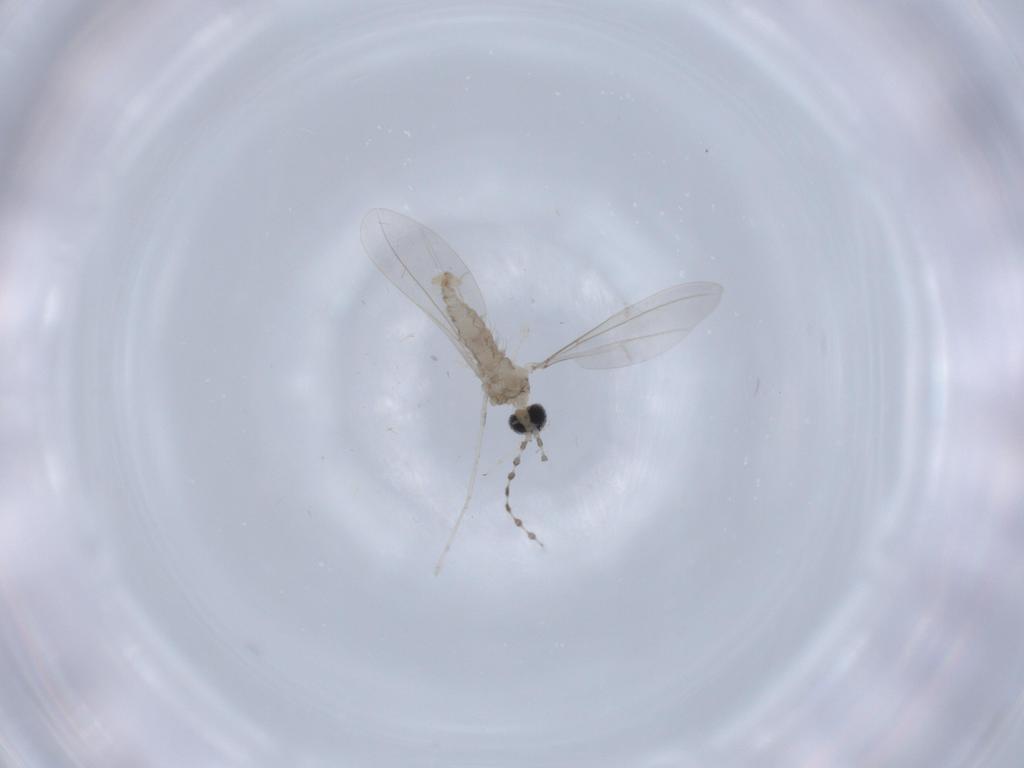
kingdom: Animalia
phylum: Arthropoda
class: Insecta
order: Diptera
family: Cecidomyiidae
